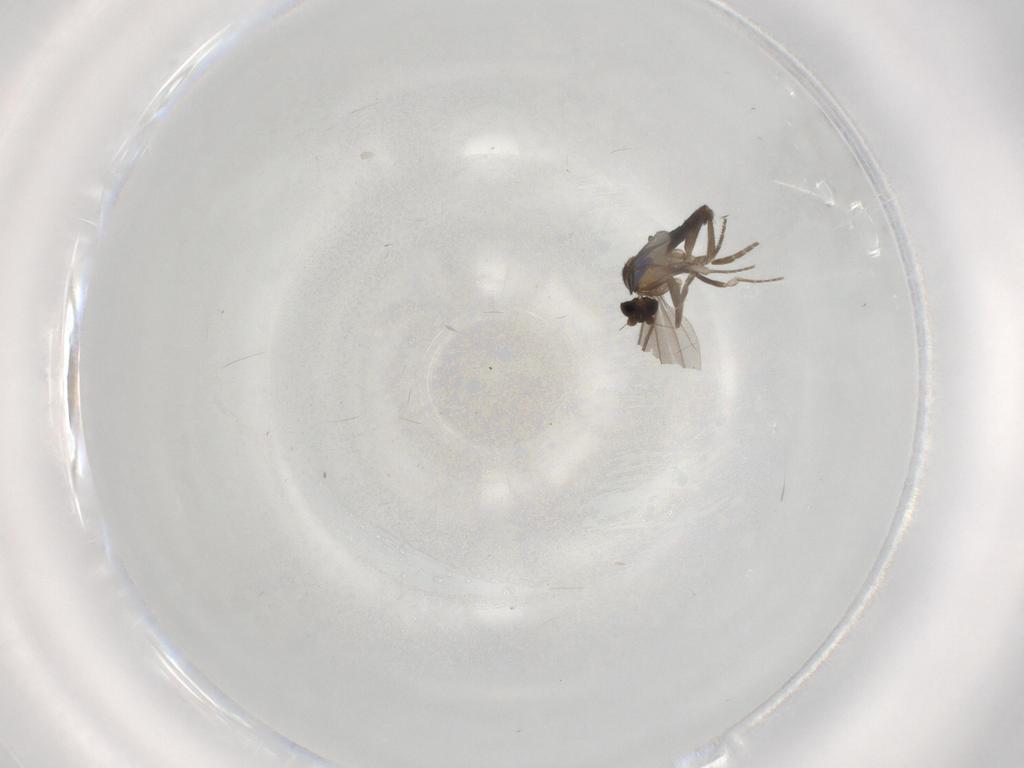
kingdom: Animalia
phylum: Arthropoda
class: Insecta
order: Diptera
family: Phoridae
